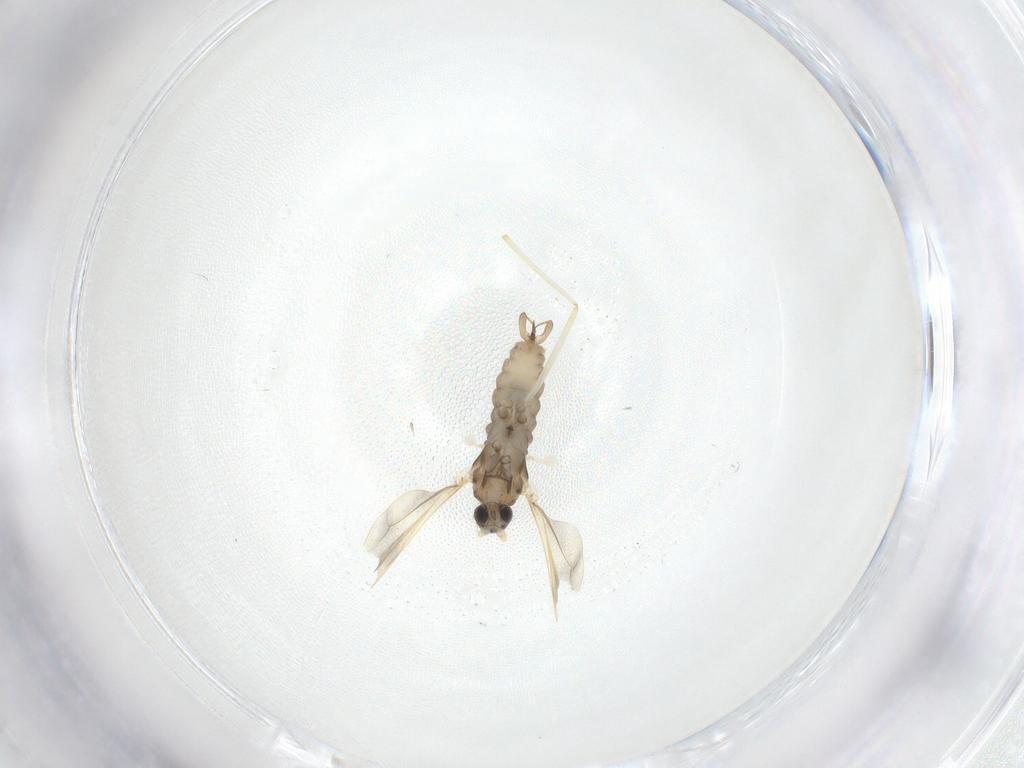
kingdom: Animalia
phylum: Arthropoda
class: Insecta
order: Diptera
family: Cecidomyiidae
